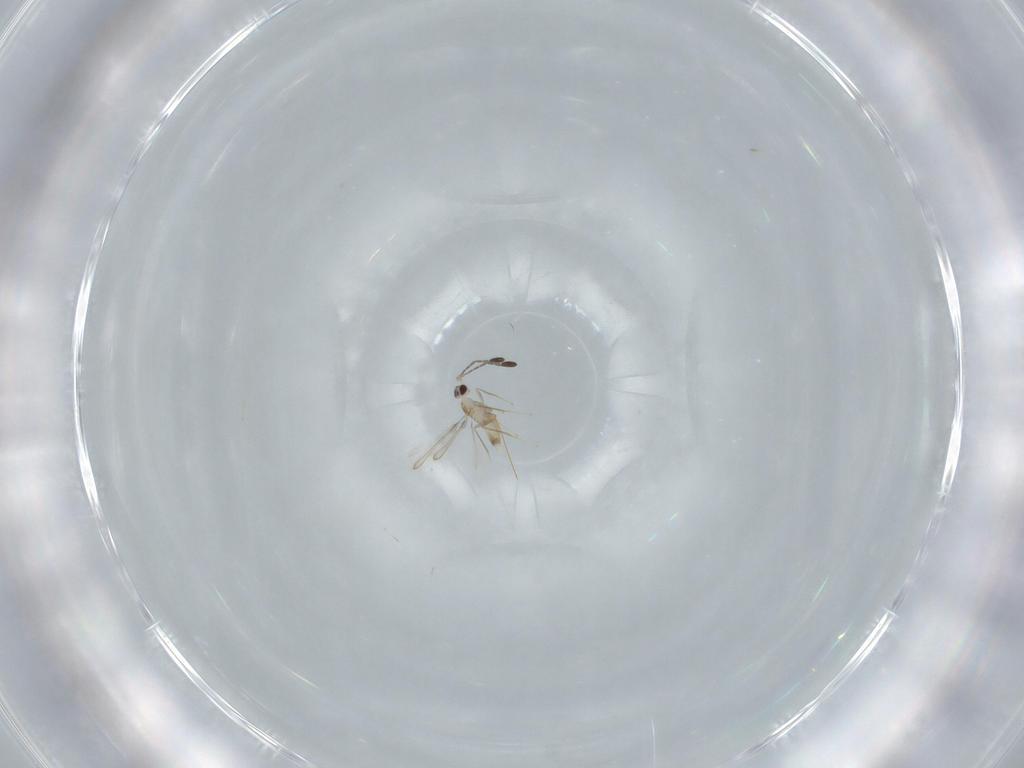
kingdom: Animalia
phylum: Arthropoda
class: Insecta
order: Hymenoptera
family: Mymaridae
